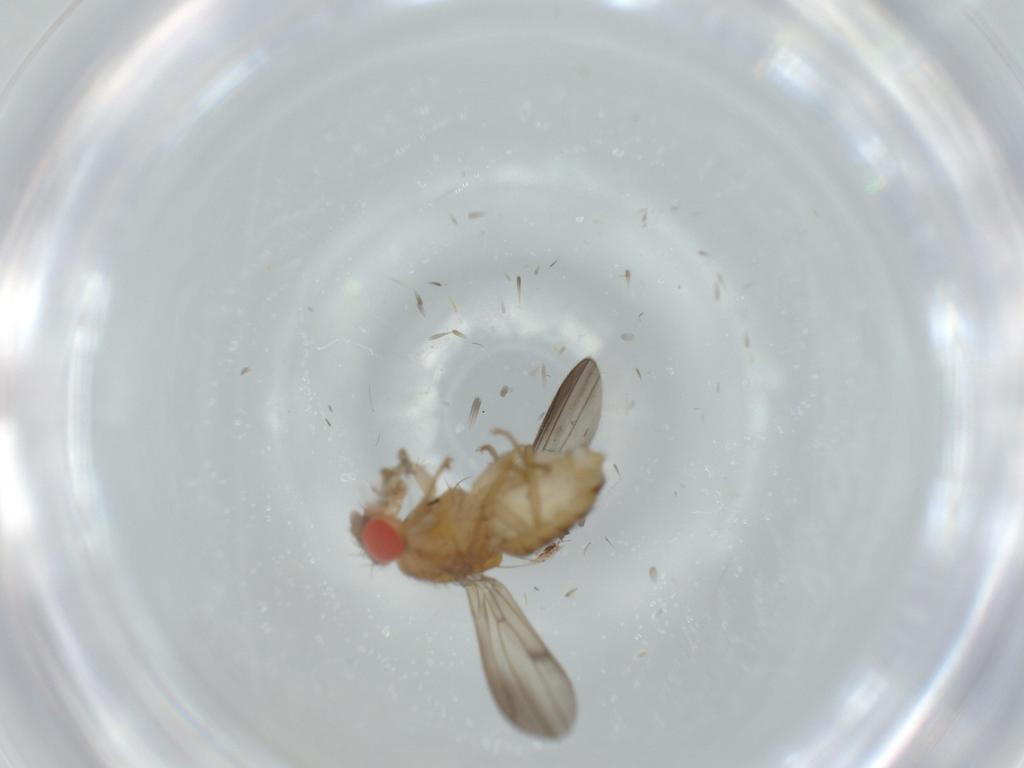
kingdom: Animalia
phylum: Arthropoda
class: Insecta
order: Diptera
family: Drosophilidae
